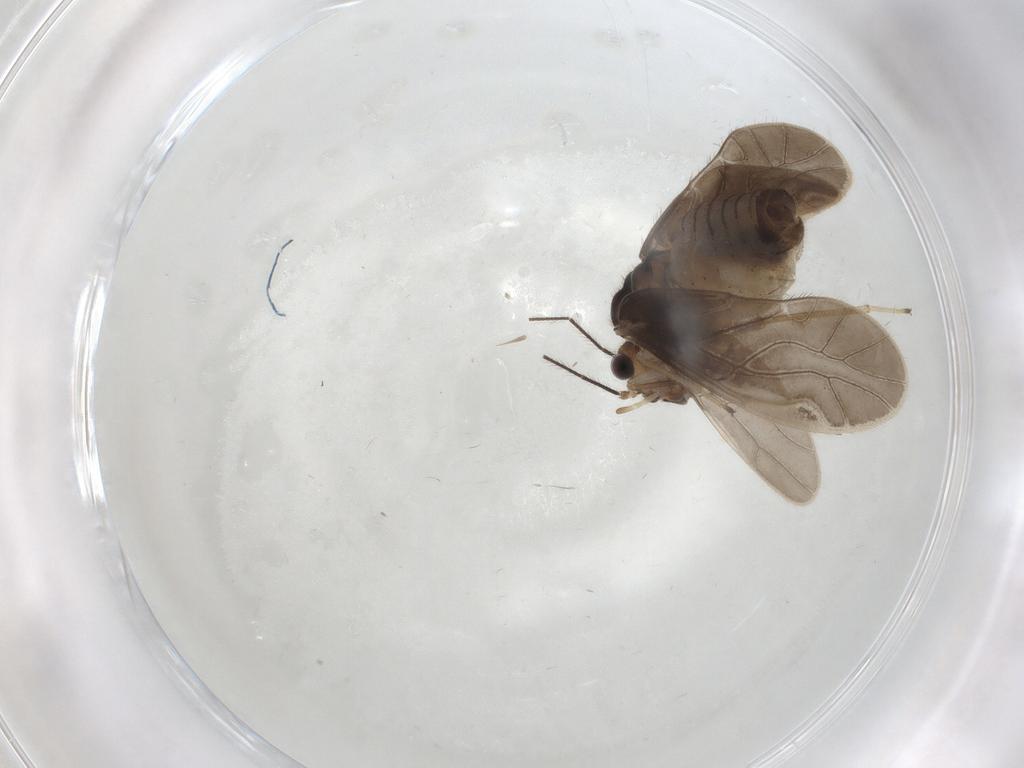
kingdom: Animalia
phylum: Arthropoda
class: Insecta
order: Psocodea
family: Caeciliusidae
